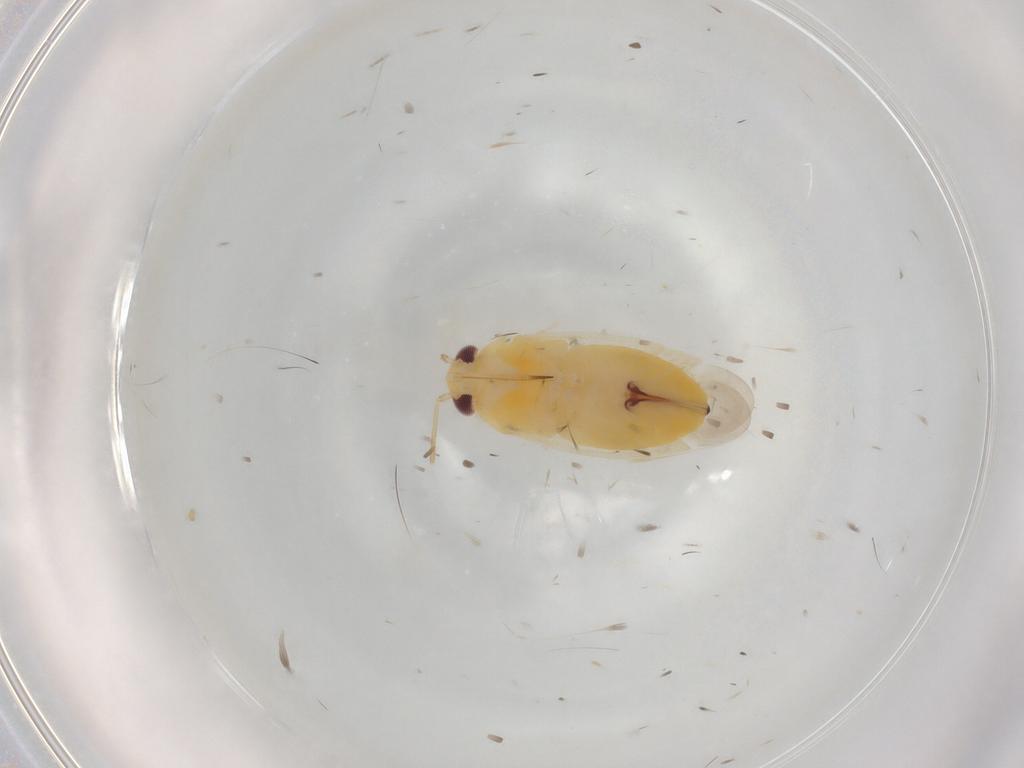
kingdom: Animalia
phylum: Arthropoda
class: Insecta
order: Hemiptera
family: Miridae
